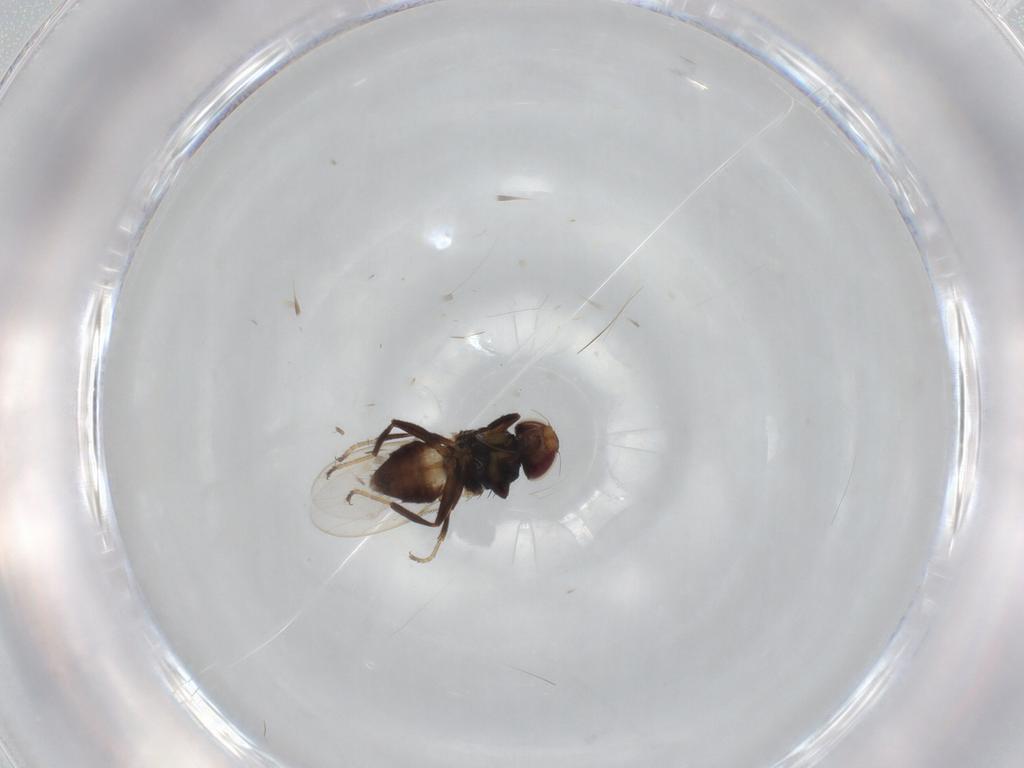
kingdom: Animalia
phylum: Arthropoda
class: Insecta
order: Diptera
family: Chloropidae
